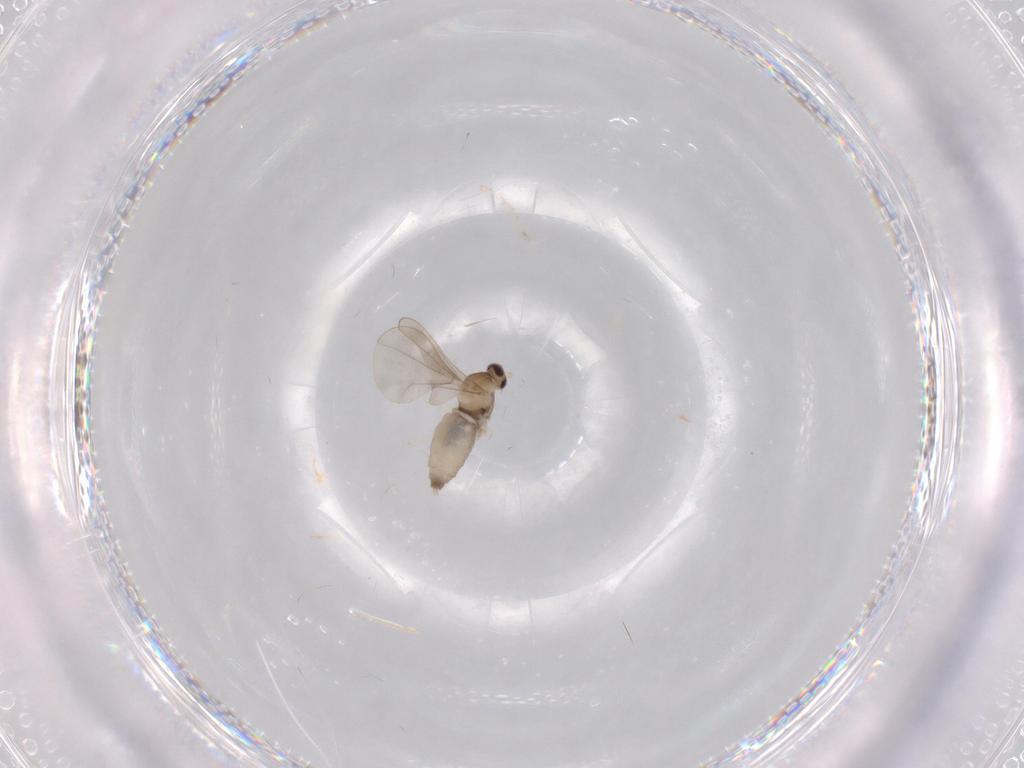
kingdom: Animalia
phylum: Arthropoda
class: Insecta
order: Diptera
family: Cecidomyiidae
